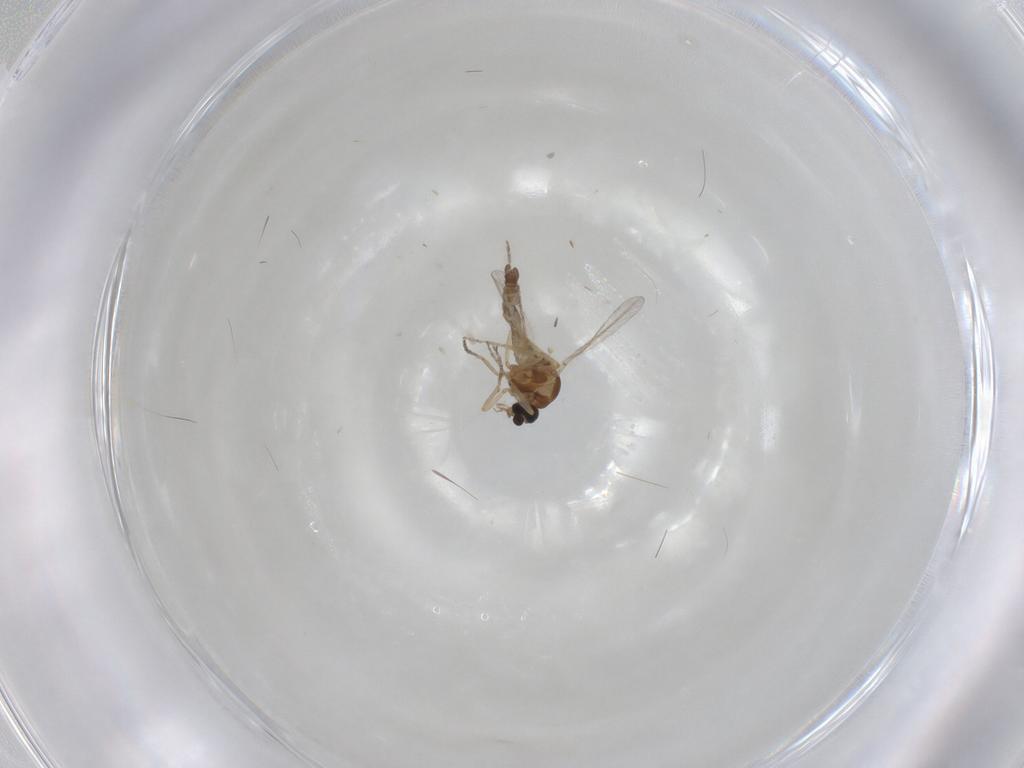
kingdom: Animalia
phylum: Arthropoda
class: Insecta
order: Diptera
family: Ceratopogonidae
